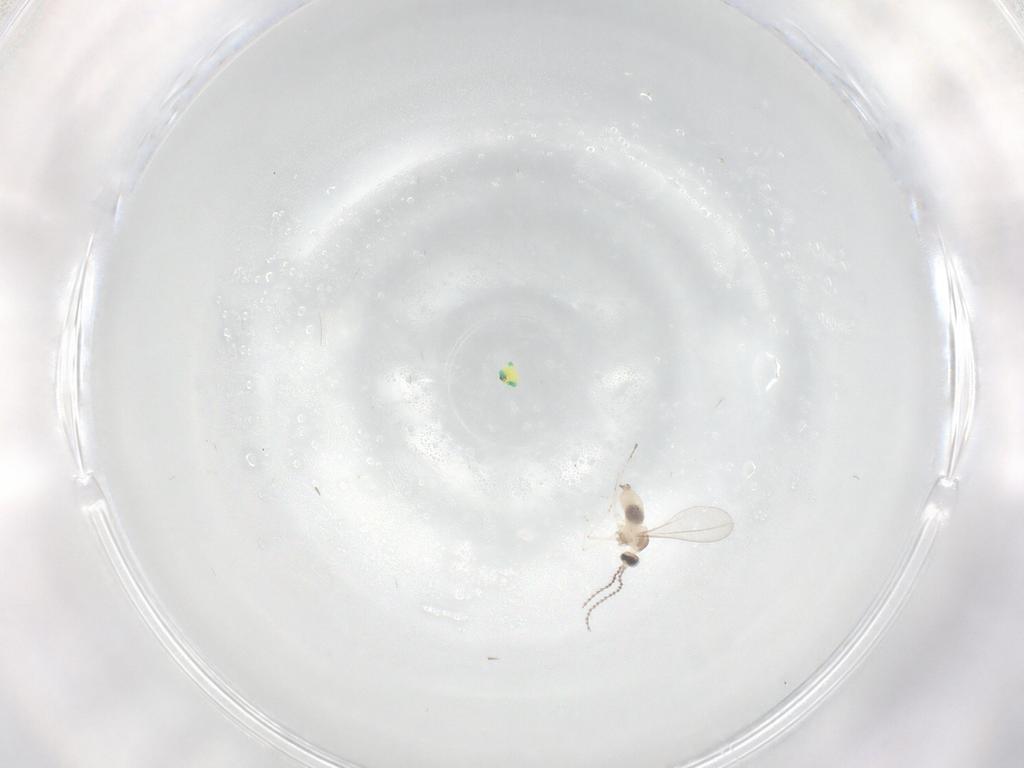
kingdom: Animalia
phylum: Arthropoda
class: Insecta
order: Diptera
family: Cecidomyiidae
